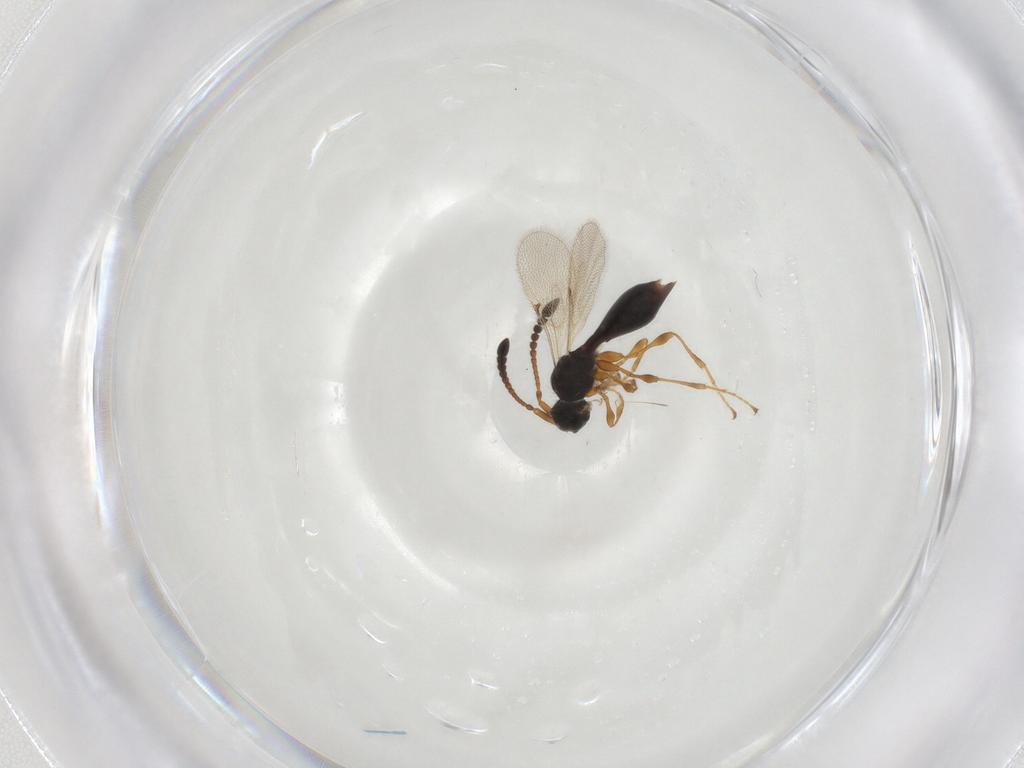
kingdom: Animalia
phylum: Arthropoda
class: Insecta
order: Hymenoptera
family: Diapriidae
